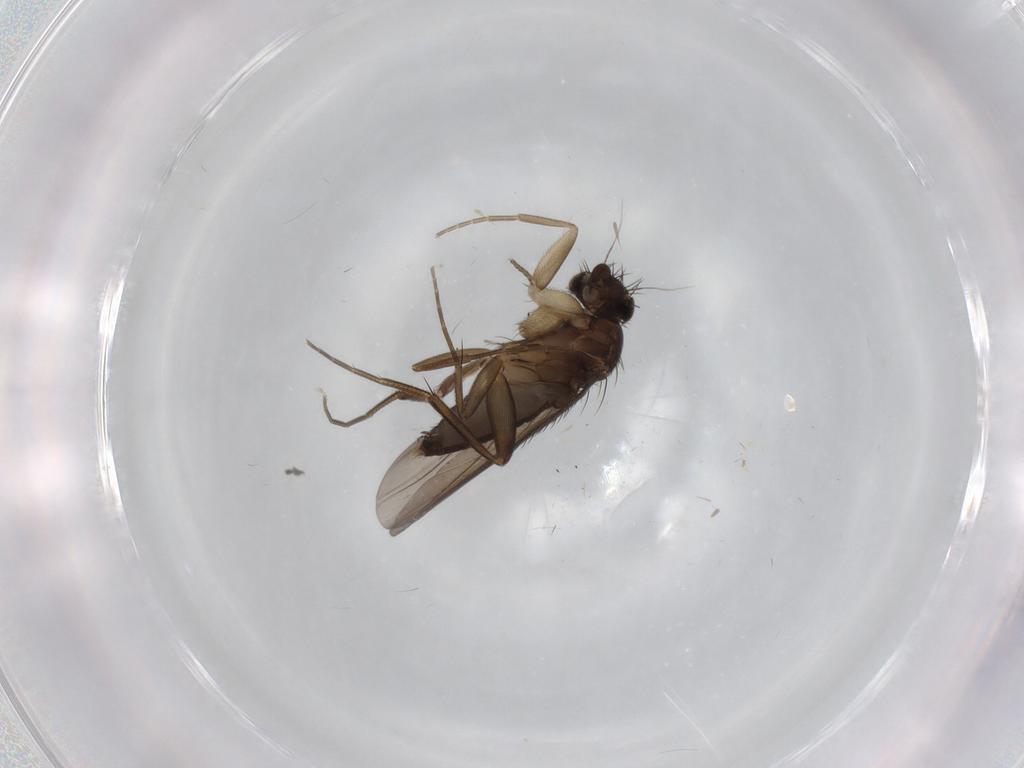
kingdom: Animalia
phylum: Arthropoda
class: Insecta
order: Diptera
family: Phoridae
